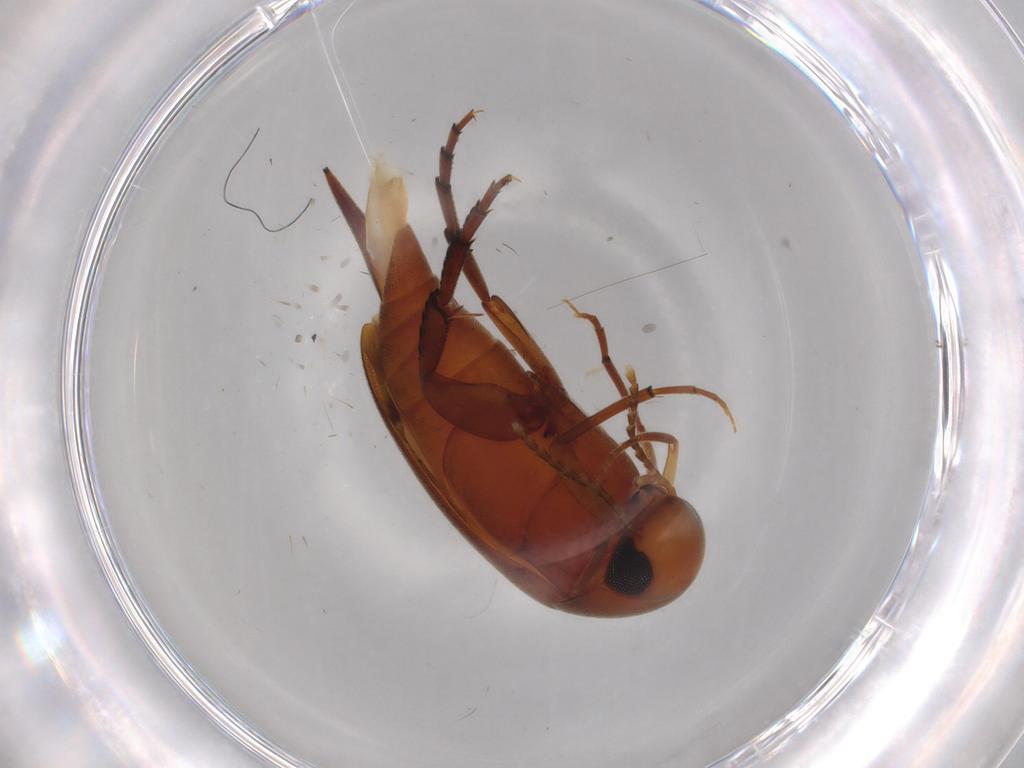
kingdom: Animalia
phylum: Arthropoda
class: Insecta
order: Coleoptera
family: Mordellidae
